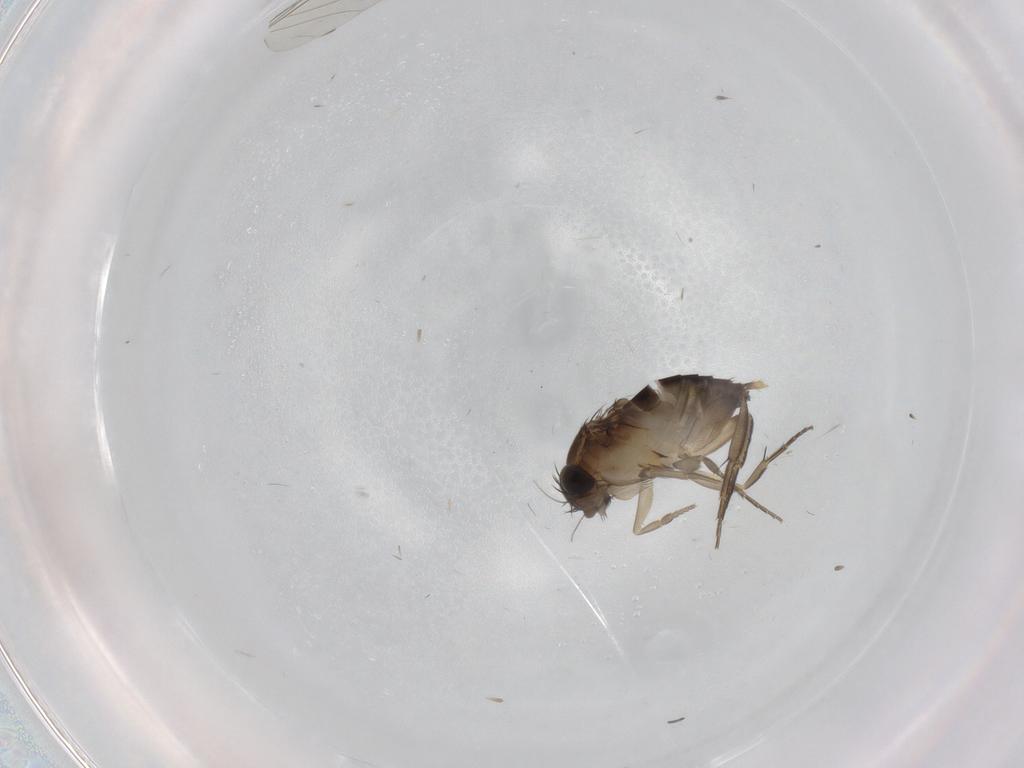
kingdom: Animalia
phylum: Arthropoda
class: Insecta
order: Diptera
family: Phoridae
